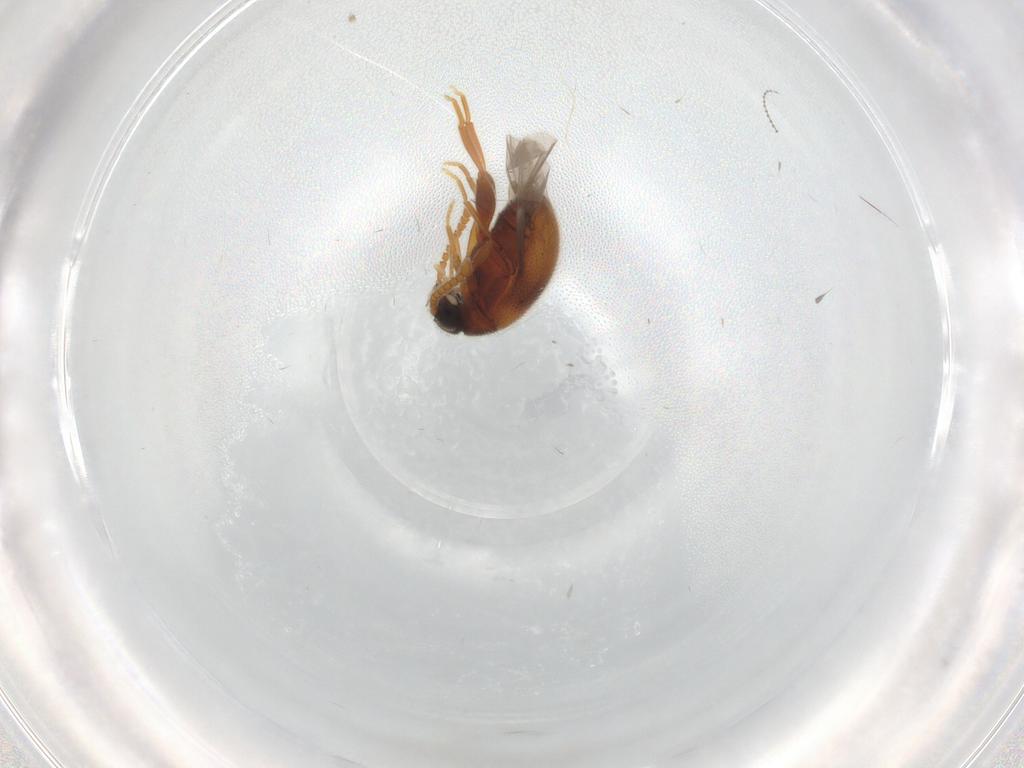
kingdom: Animalia
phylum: Arthropoda
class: Insecta
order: Coleoptera
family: Aderidae
